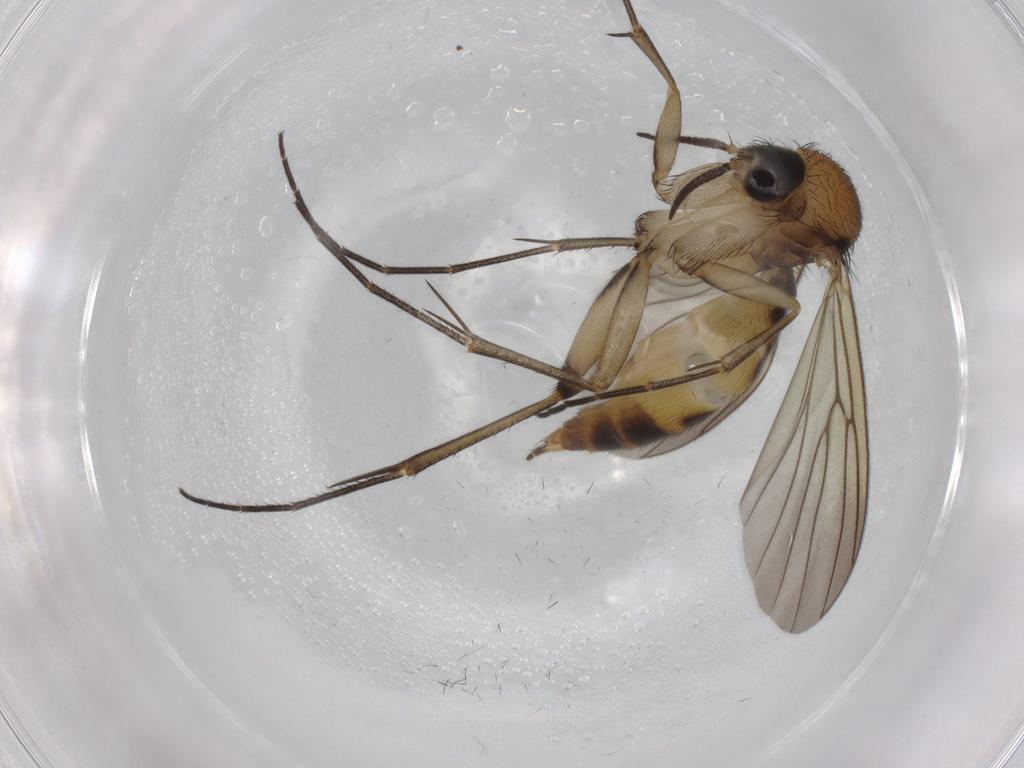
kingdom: Animalia
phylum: Arthropoda
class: Insecta
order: Diptera
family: Mycetophilidae
